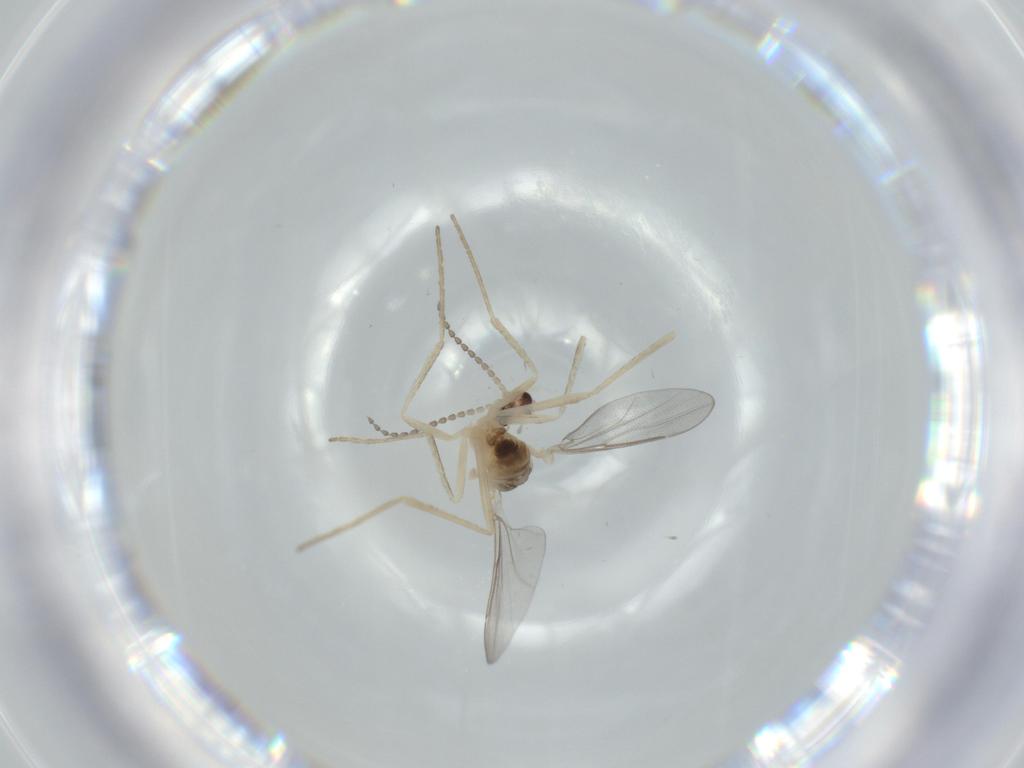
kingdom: Animalia
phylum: Arthropoda
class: Insecta
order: Diptera
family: Cecidomyiidae
